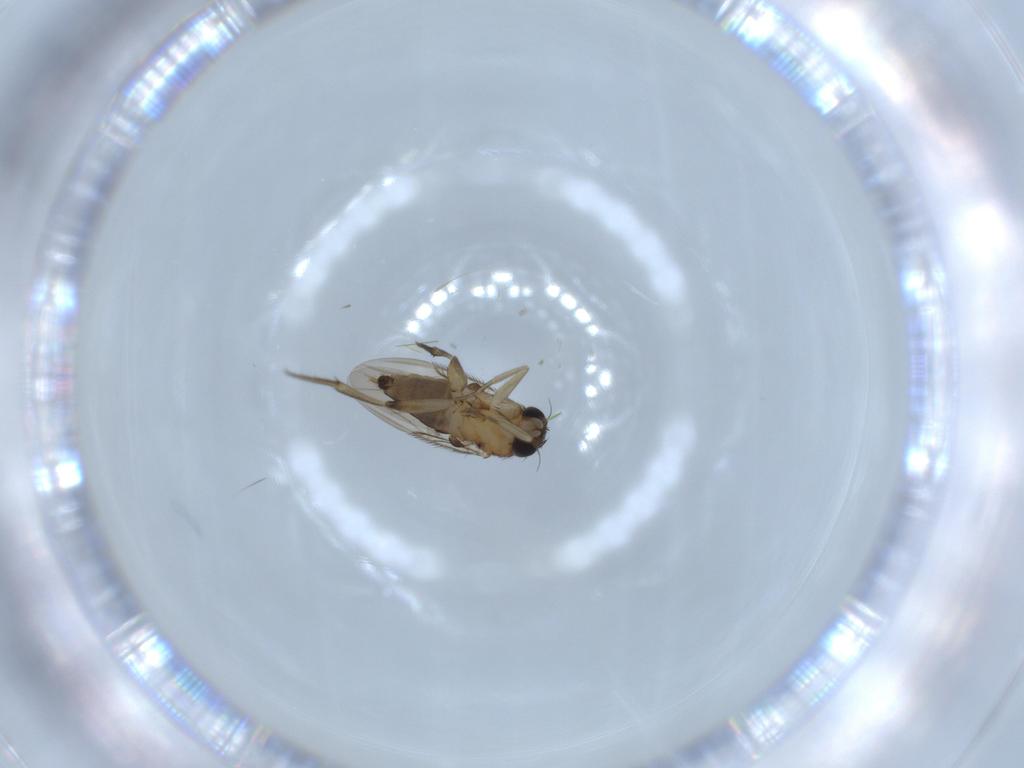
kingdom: Animalia
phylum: Arthropoda
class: Insecta
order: Diptera
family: Phoridae
